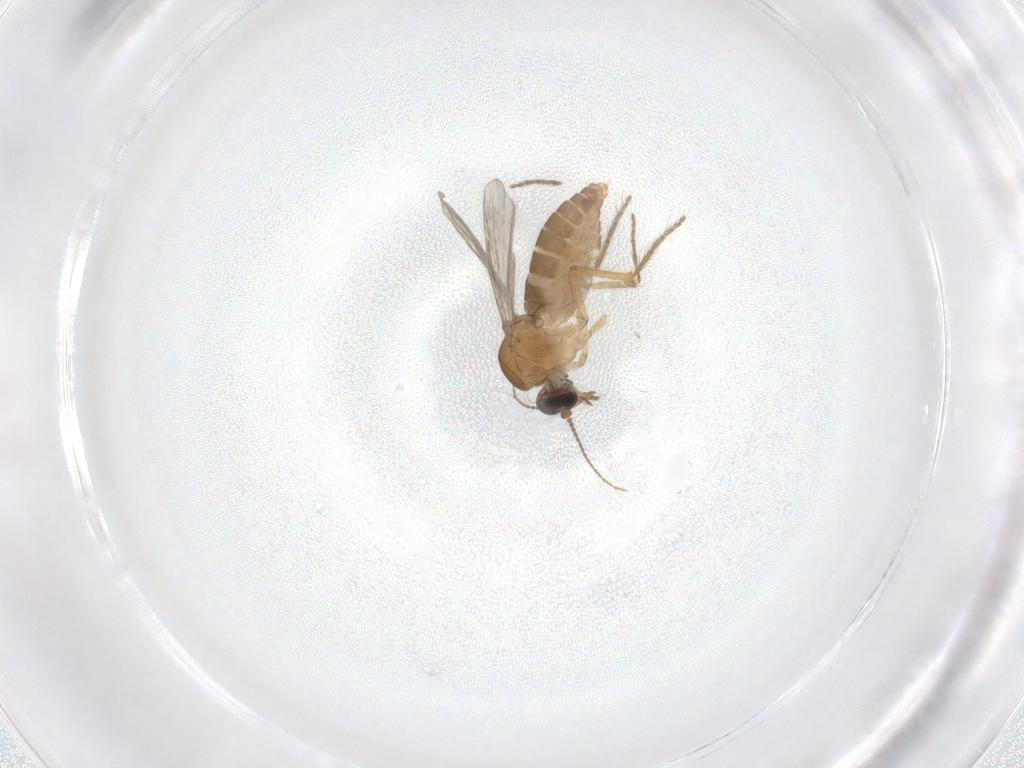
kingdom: Animalia
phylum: Arthropoda
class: Insecta
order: Diptera
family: Ceratopogonidae
